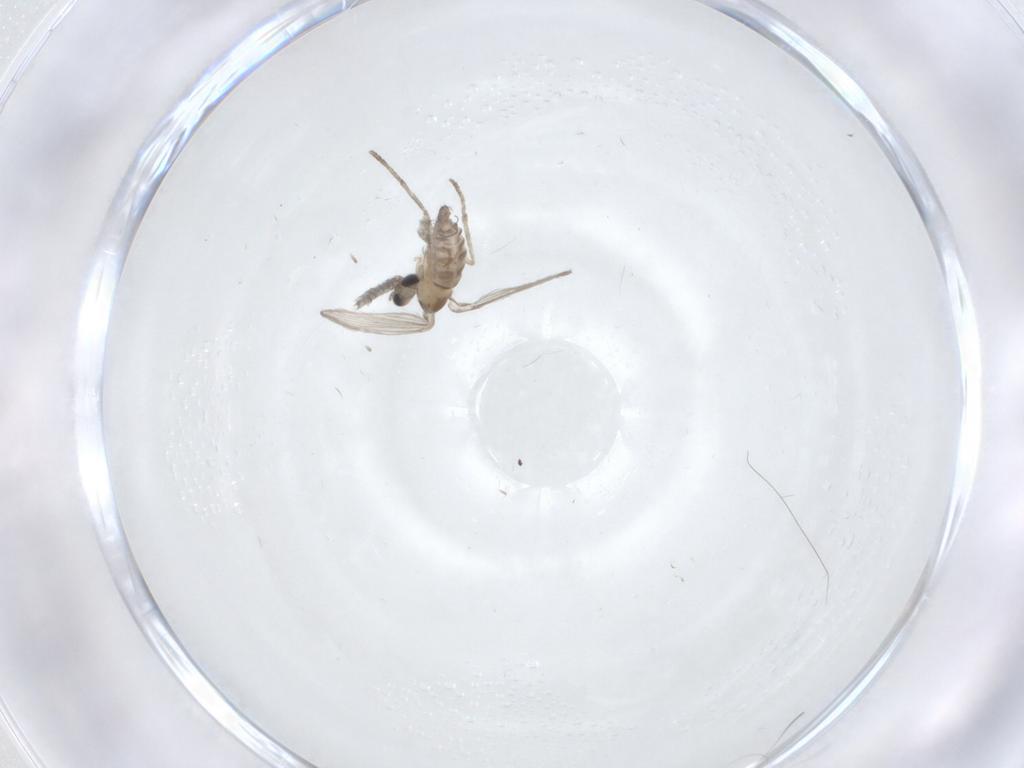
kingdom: Animalia
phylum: Arthropoda
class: Insecta
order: Diptera
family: Psychodidae
